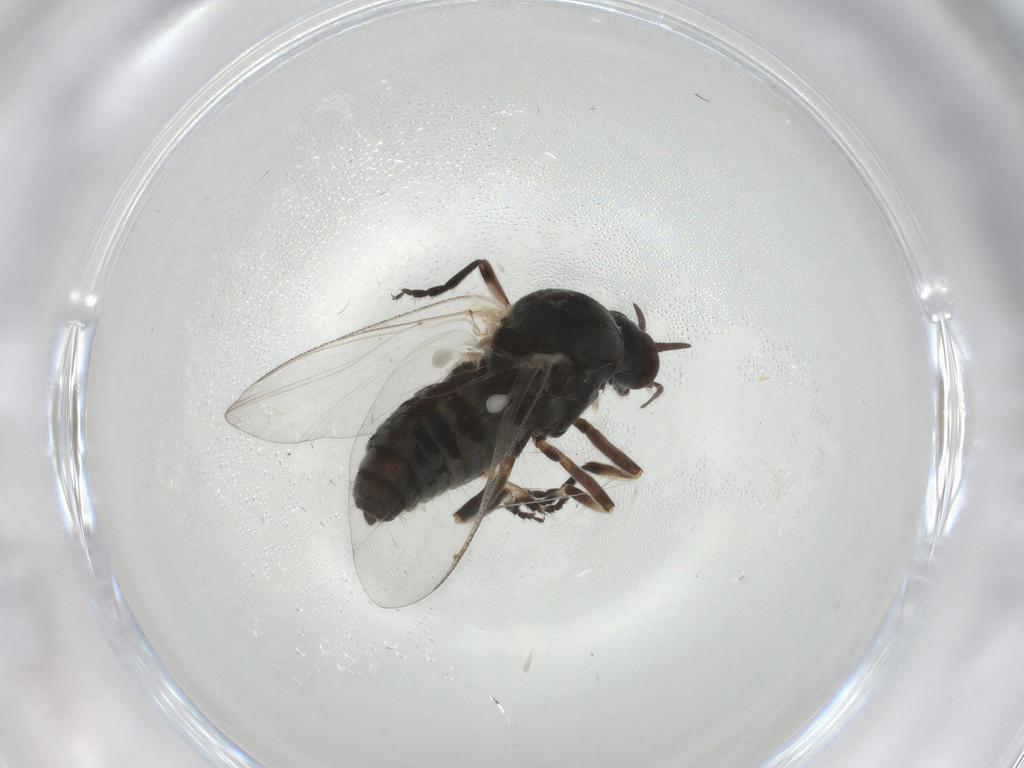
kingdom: Animalia
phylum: Arthropoda
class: Insecta
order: Diptera
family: Simuliidae
